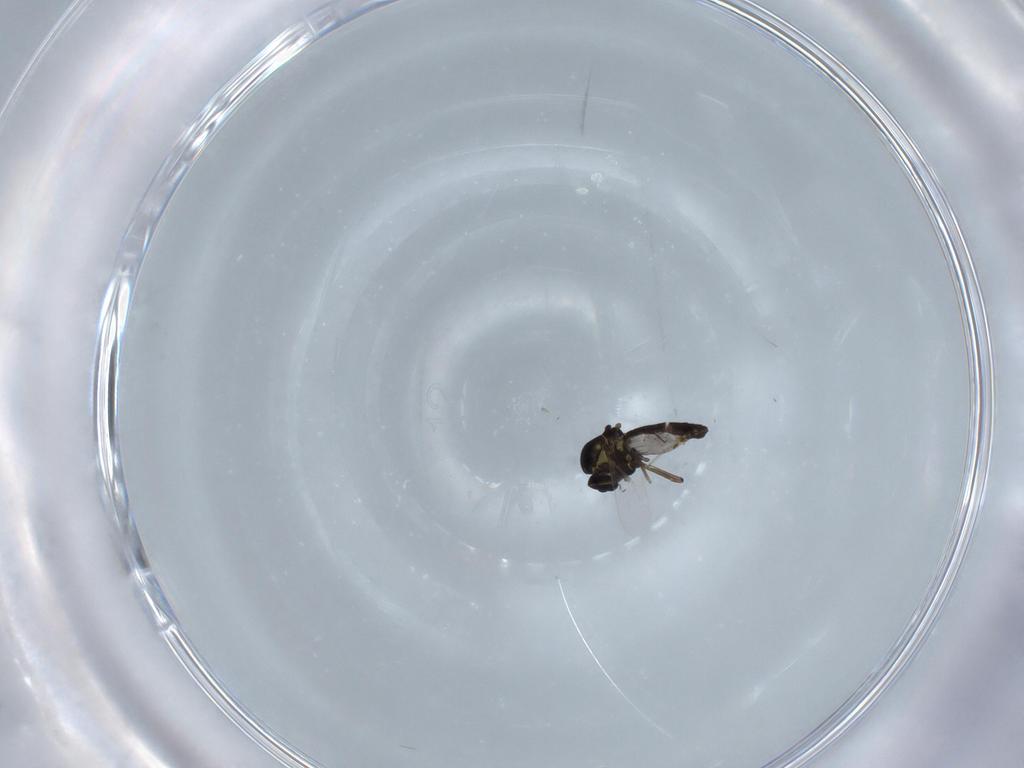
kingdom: Animalia
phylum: Arthropoda
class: Insecta
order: Diptera
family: Ceratopogonidae
